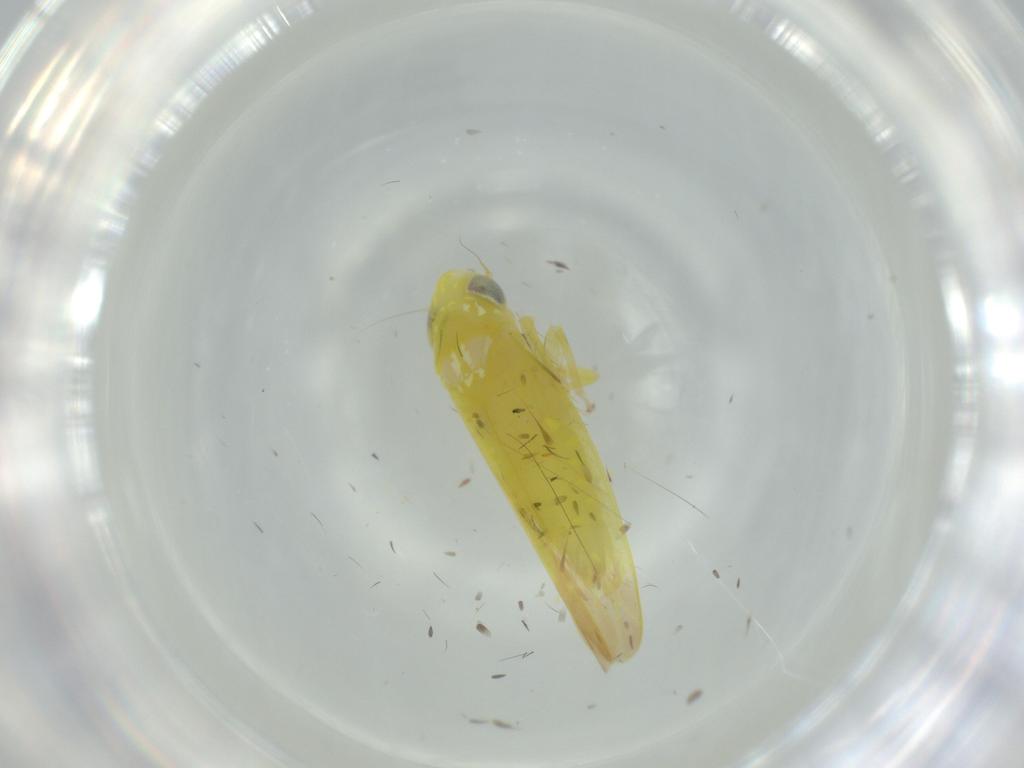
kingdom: Animalia
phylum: Arthropoda
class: Insecta
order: Hemiptera
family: Cicadellidae
